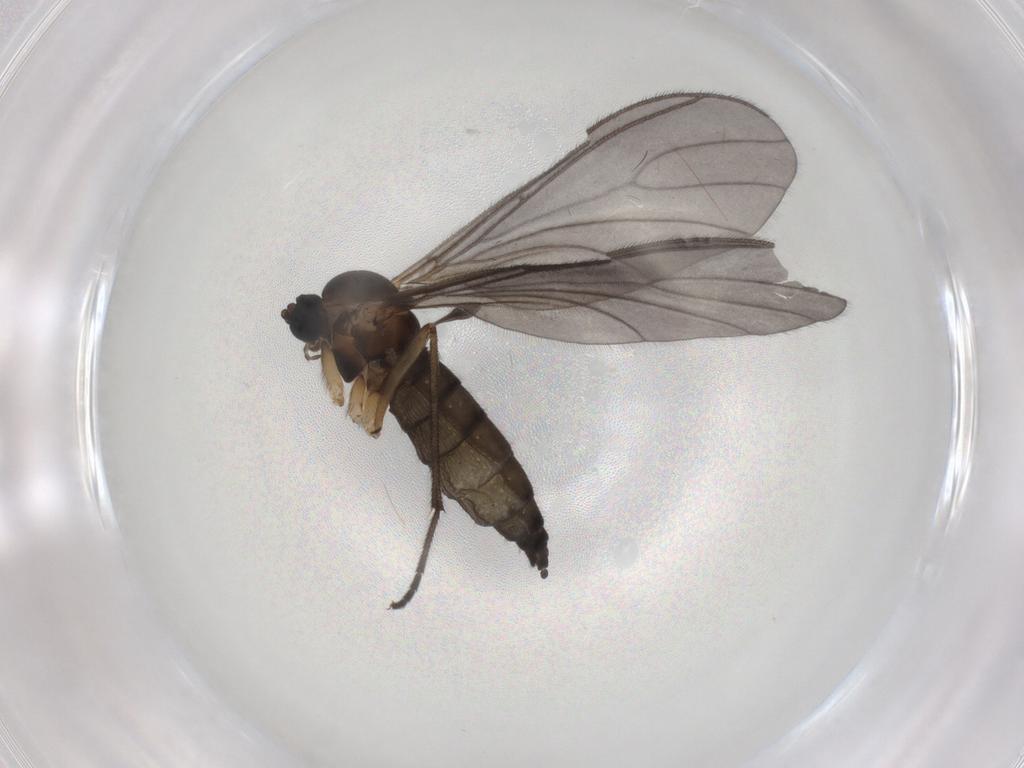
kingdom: Animalia
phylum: Arthropoda
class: Insecta
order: Diptera
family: Sciaridae
